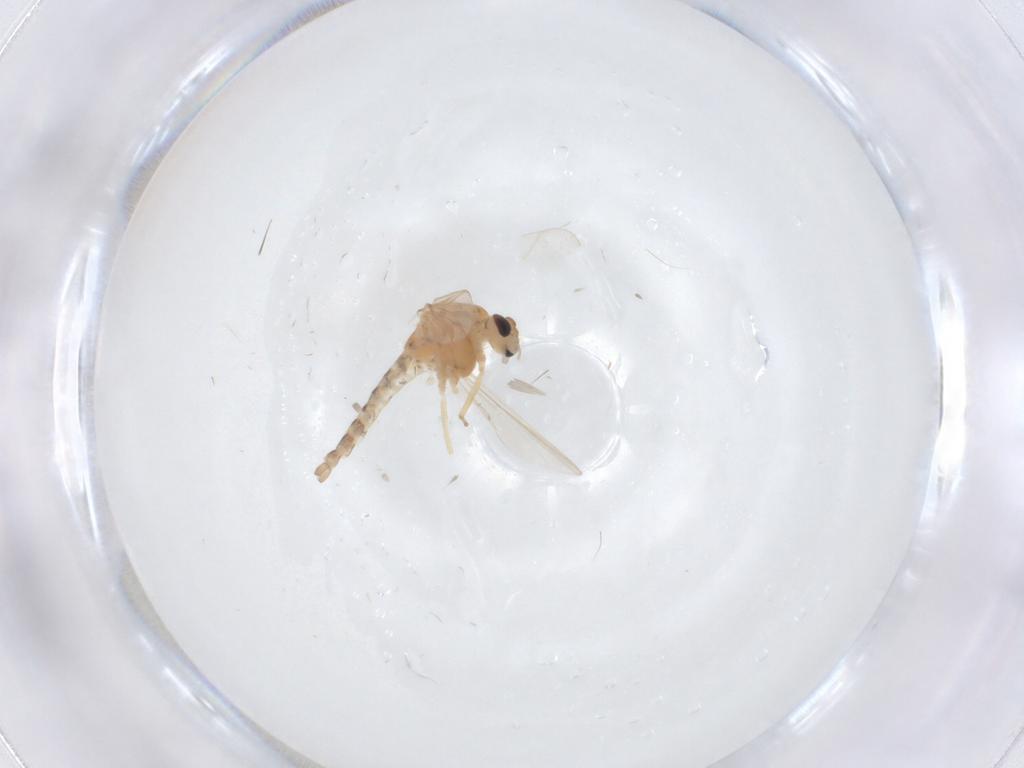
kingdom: Animalia
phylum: Arthropoda
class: Insecta
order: Diptera
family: Chironomidae
